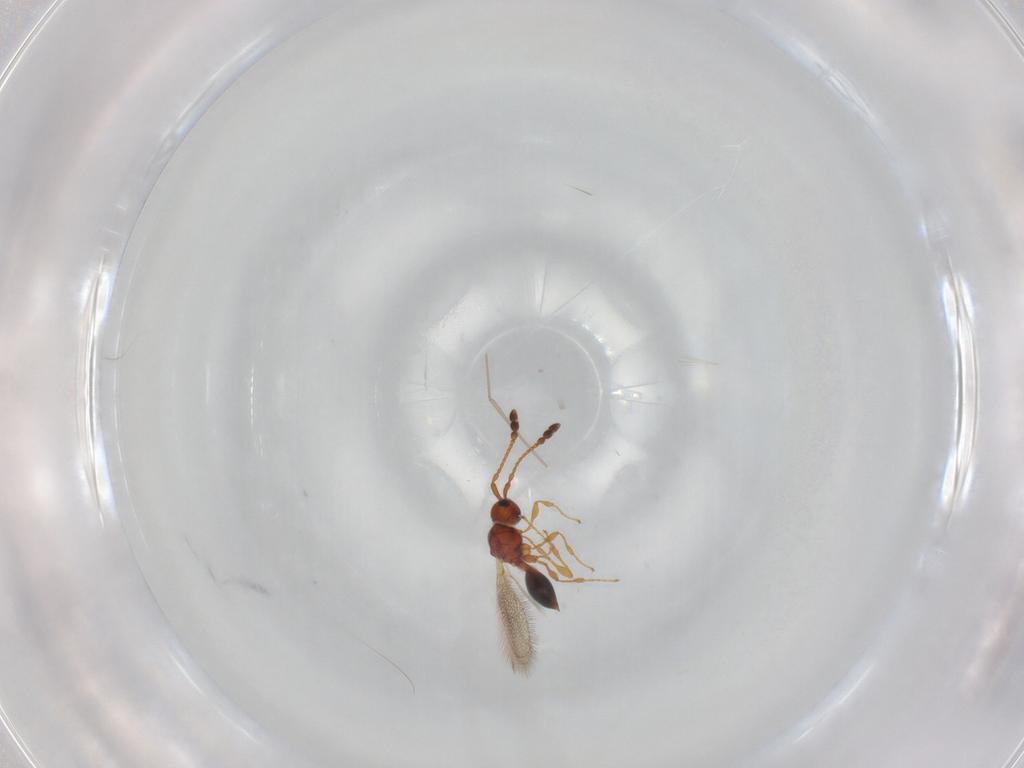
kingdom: Animalia
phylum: Arthropoda
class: Insecta
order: Hymenoptera
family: Diapriidae
